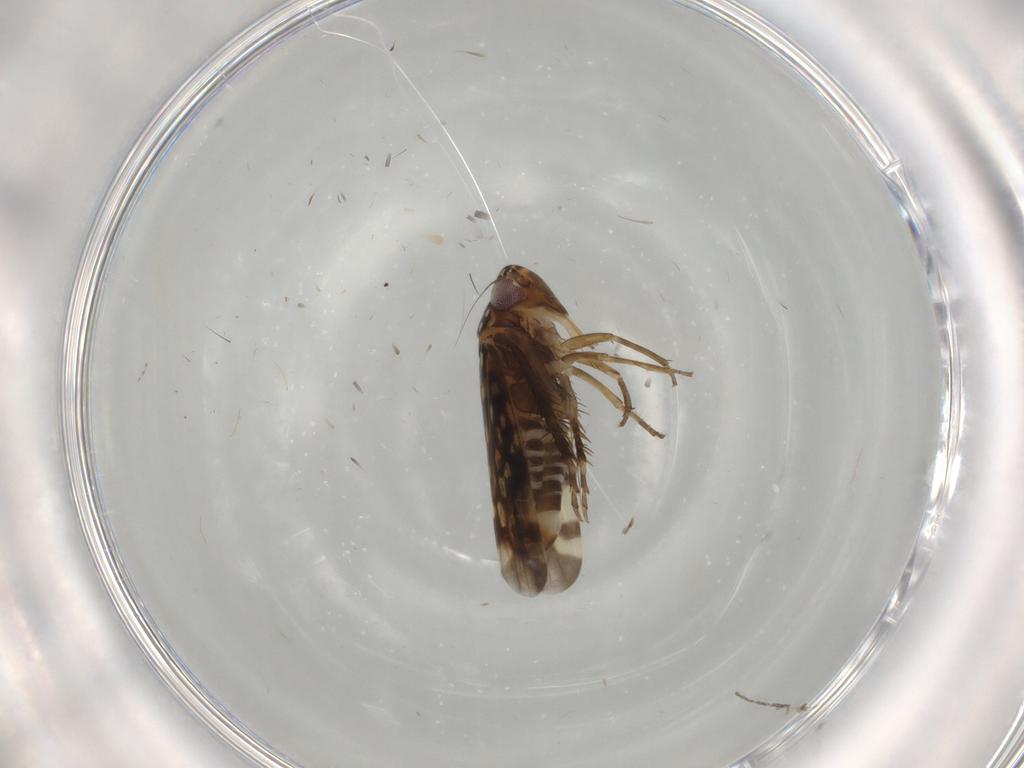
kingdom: Animalia
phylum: Arthropoda
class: Insecta
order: Hemiptera
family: Cicadellidae
